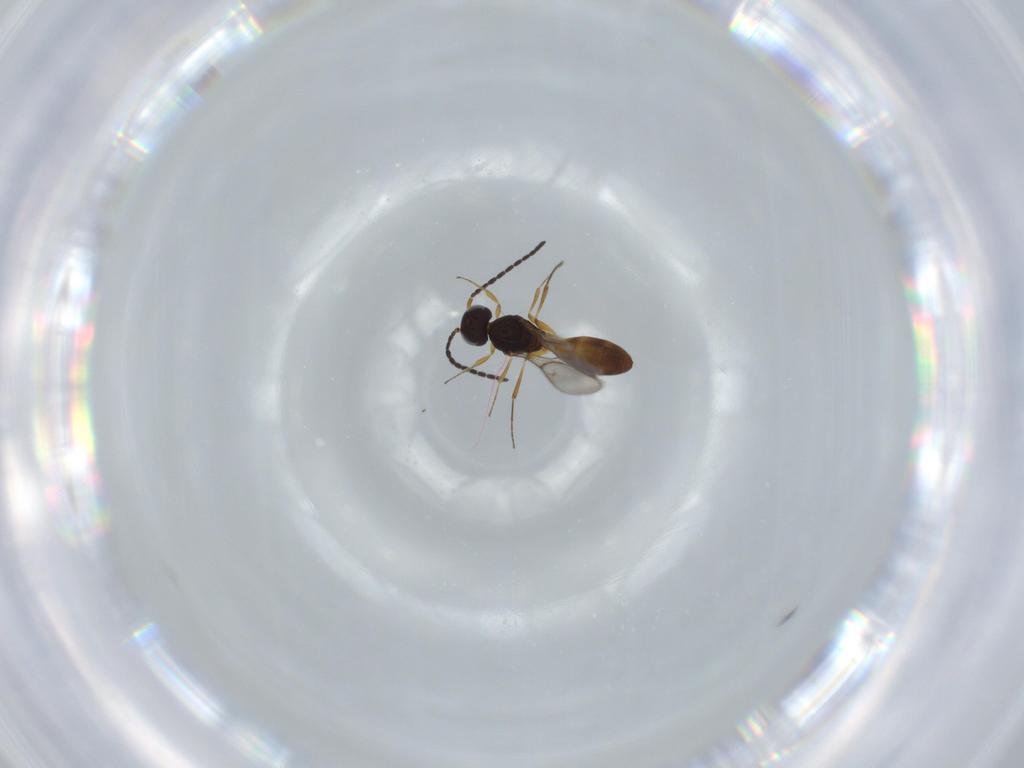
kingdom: Animalia
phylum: Arthropoda
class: Insecta
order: Hymenoptera
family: Scelionidae
